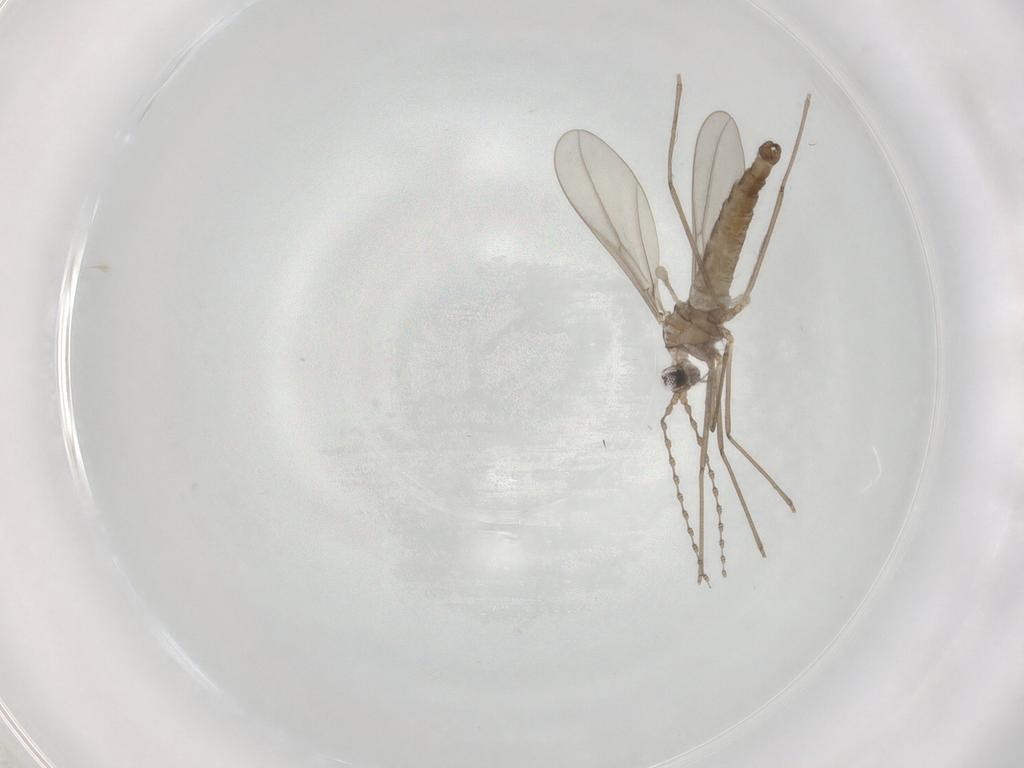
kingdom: Animalia
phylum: Arthropoda
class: Insecta
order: Diptera
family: Cecidomyiidae
